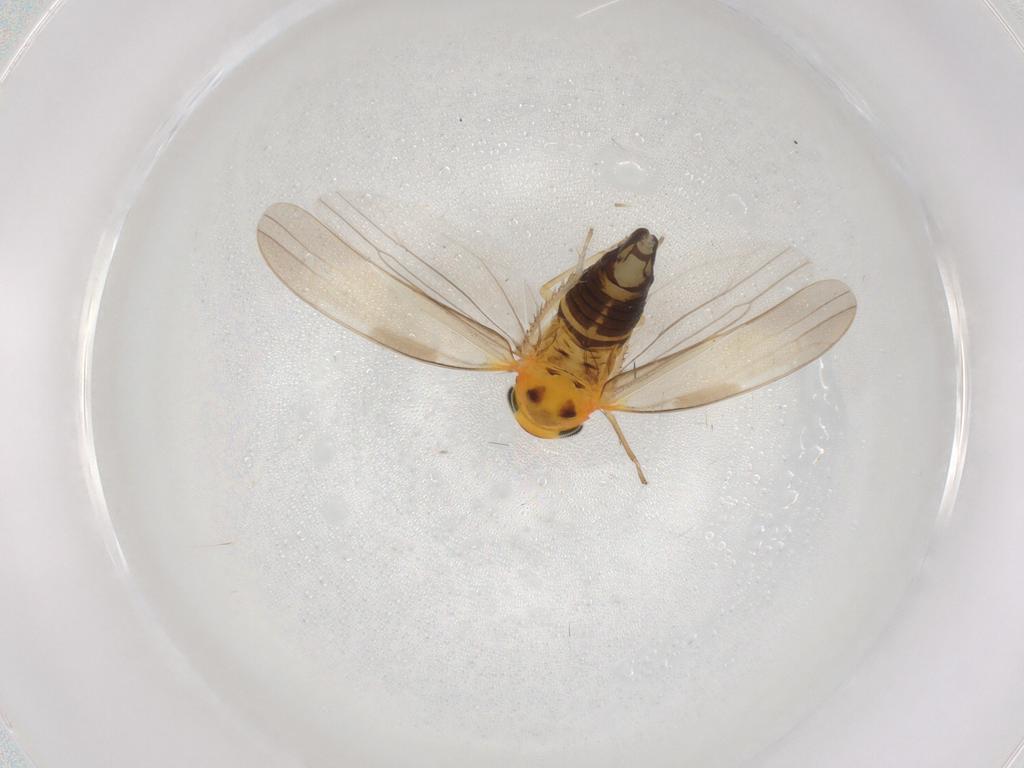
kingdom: Animalia
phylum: Arthropoda
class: Insecta
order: Hemiptera
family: Cicadellidae
